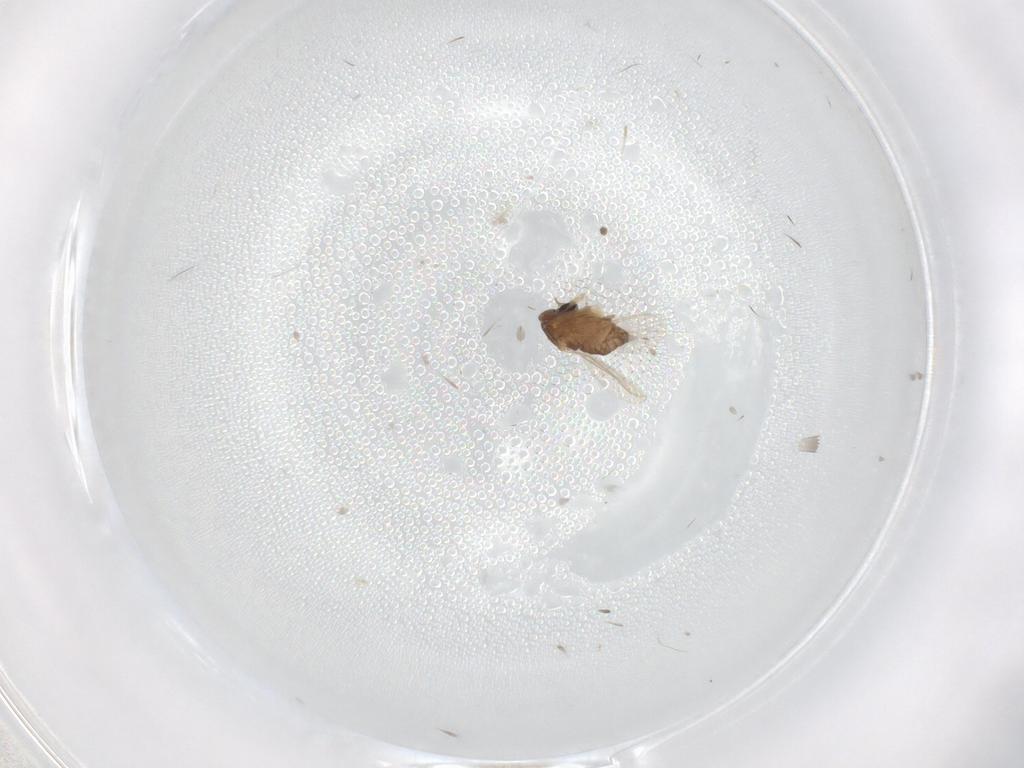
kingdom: Animalia
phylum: Arthropoda
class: Insecta
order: Diptera
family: Chironomidae
